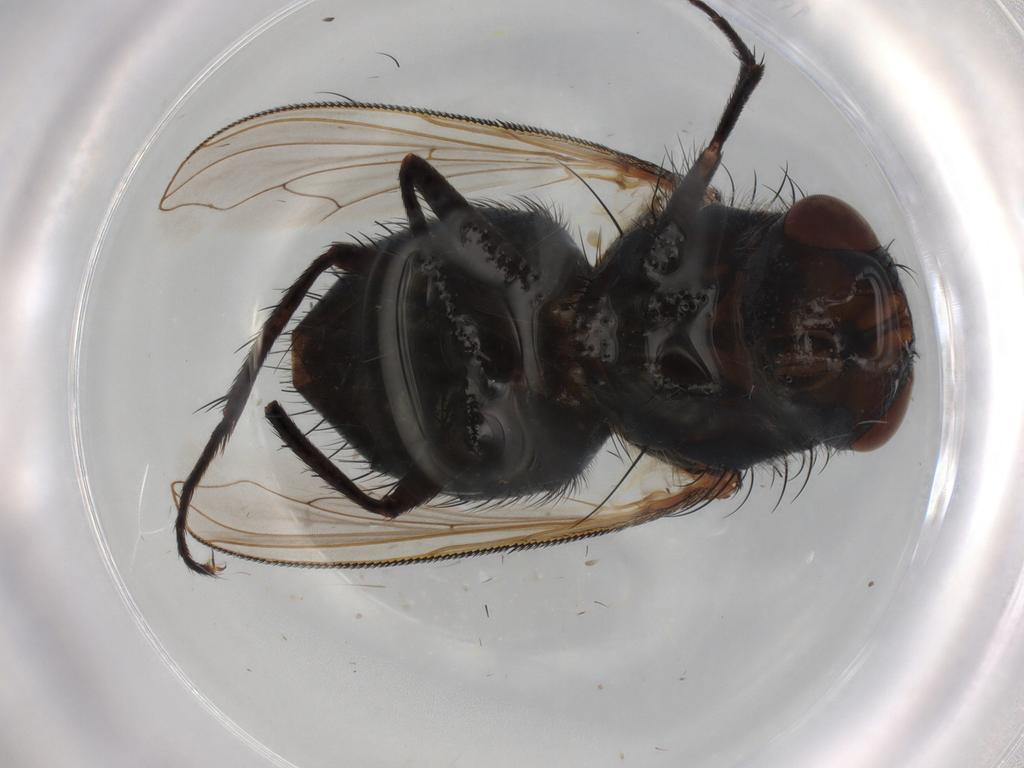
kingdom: Animalia
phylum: Arthropoda
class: Insecta
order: Diptera
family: Polleniidae
